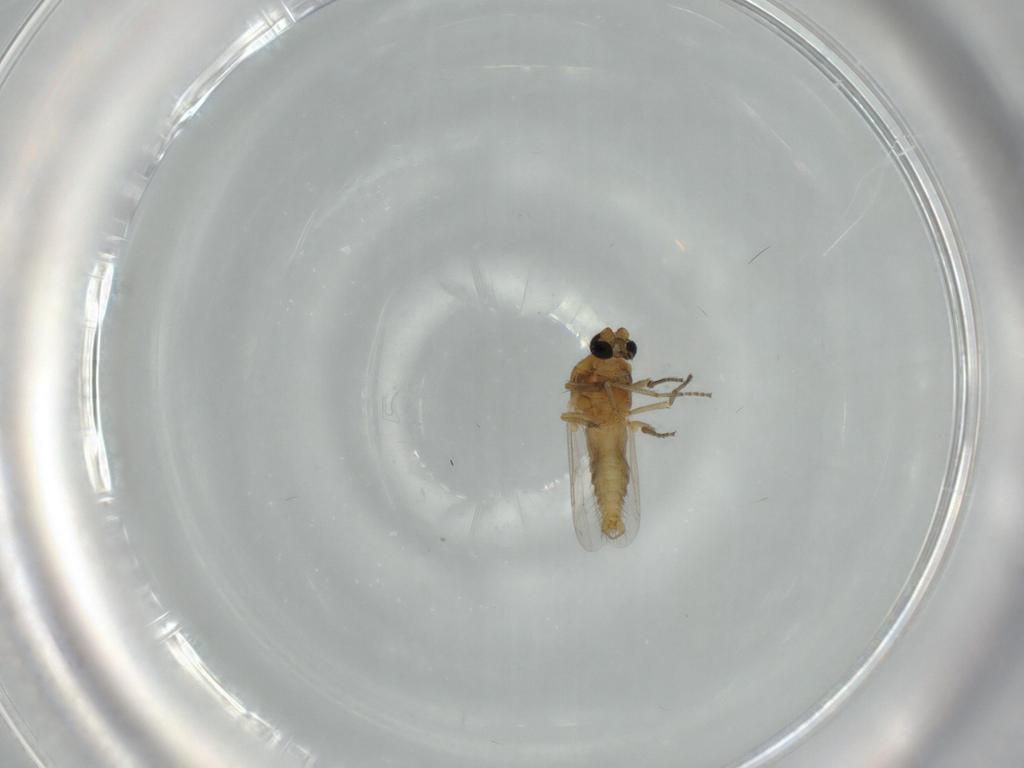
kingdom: Animalia
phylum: Arthropoda
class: Insecta
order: Diptera
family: Ceratopogonidae
